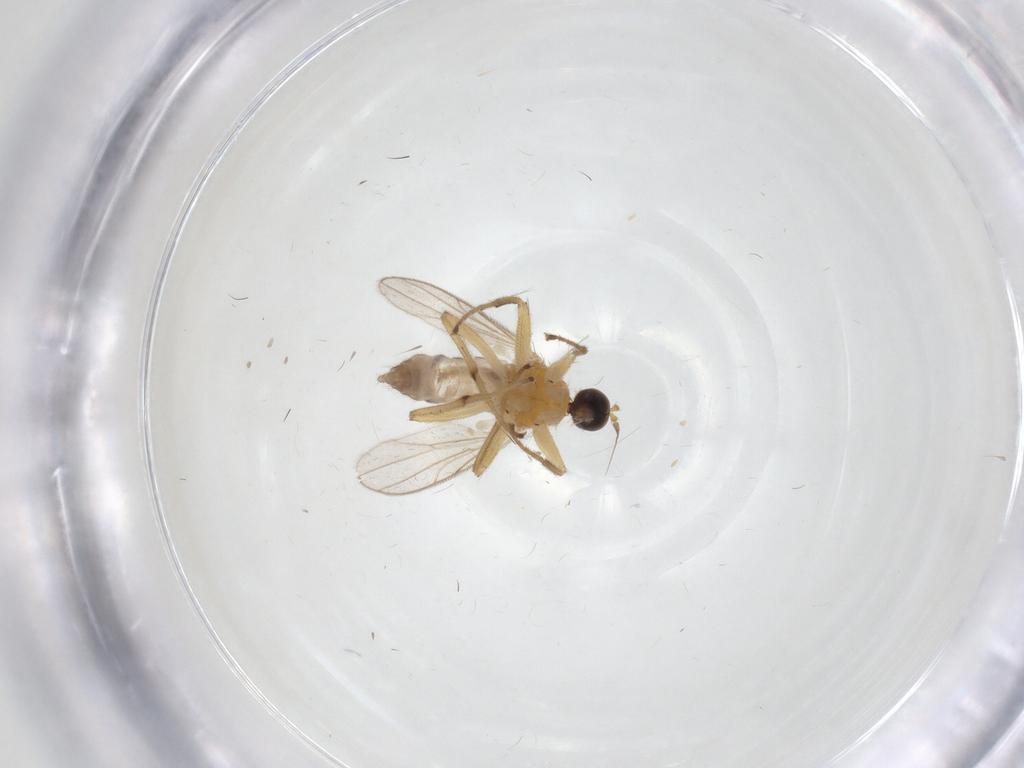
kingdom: Animalia
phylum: Arthropoda
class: Insecta
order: Diptera
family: Hybotidae
